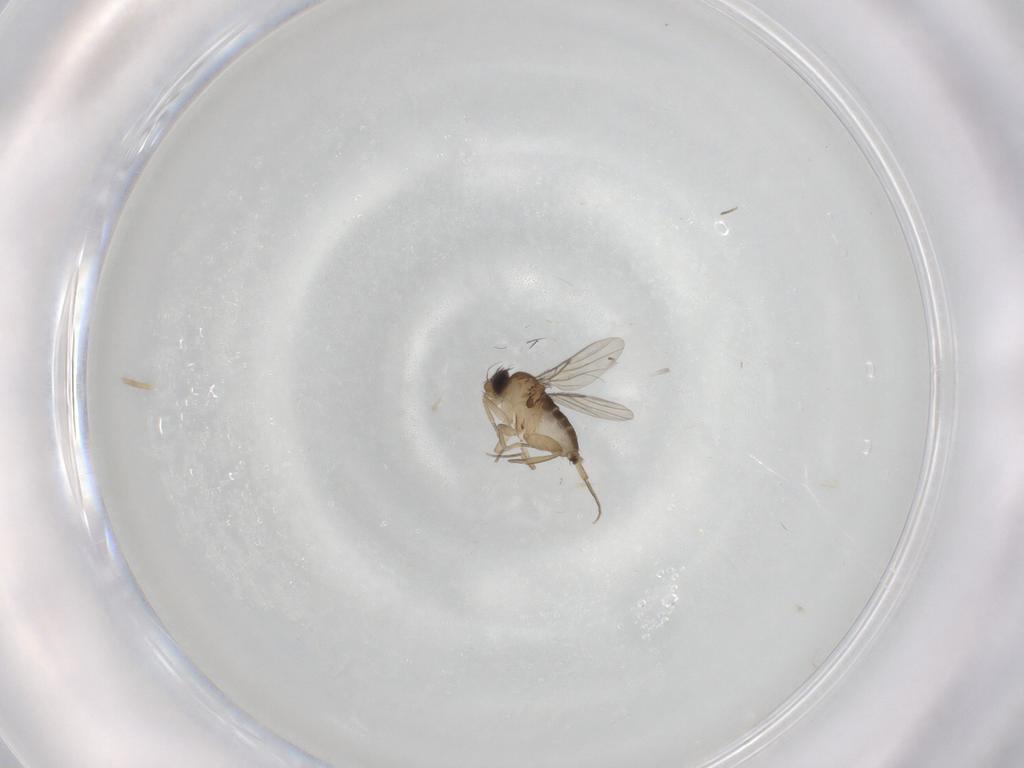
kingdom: Animalia
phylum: Arthropoda
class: Insecta
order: Diptera
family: Phoridae
